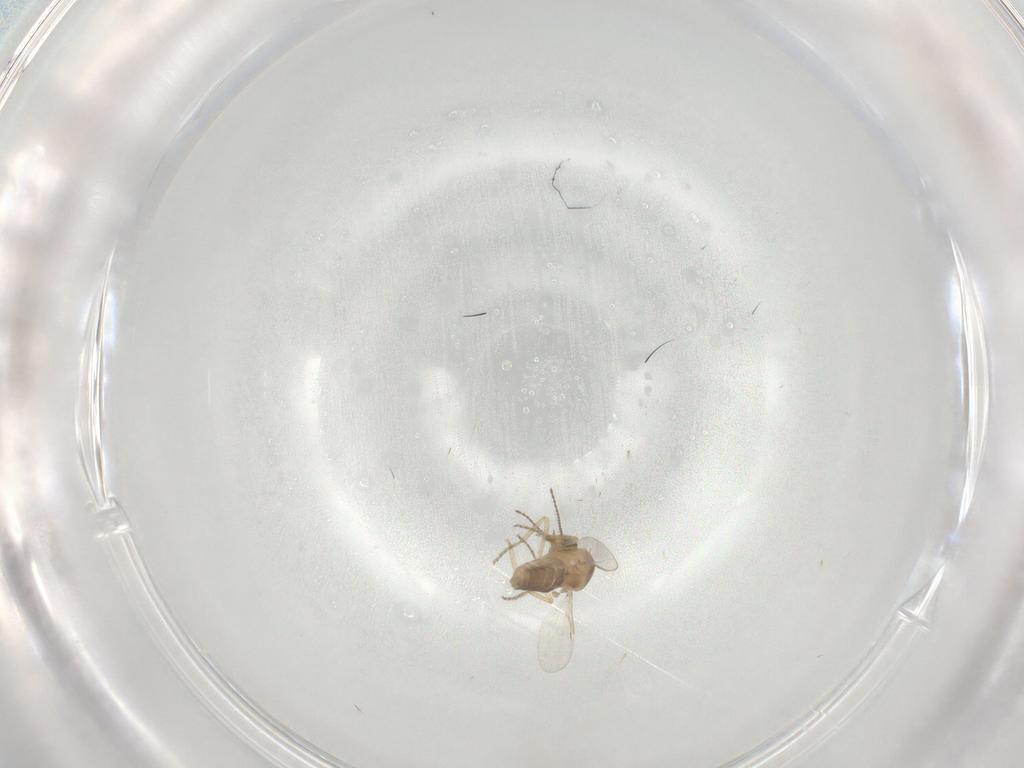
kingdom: Animalia
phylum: Arthropoda
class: Insecta
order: Diptera
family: Ceratopogonidae
